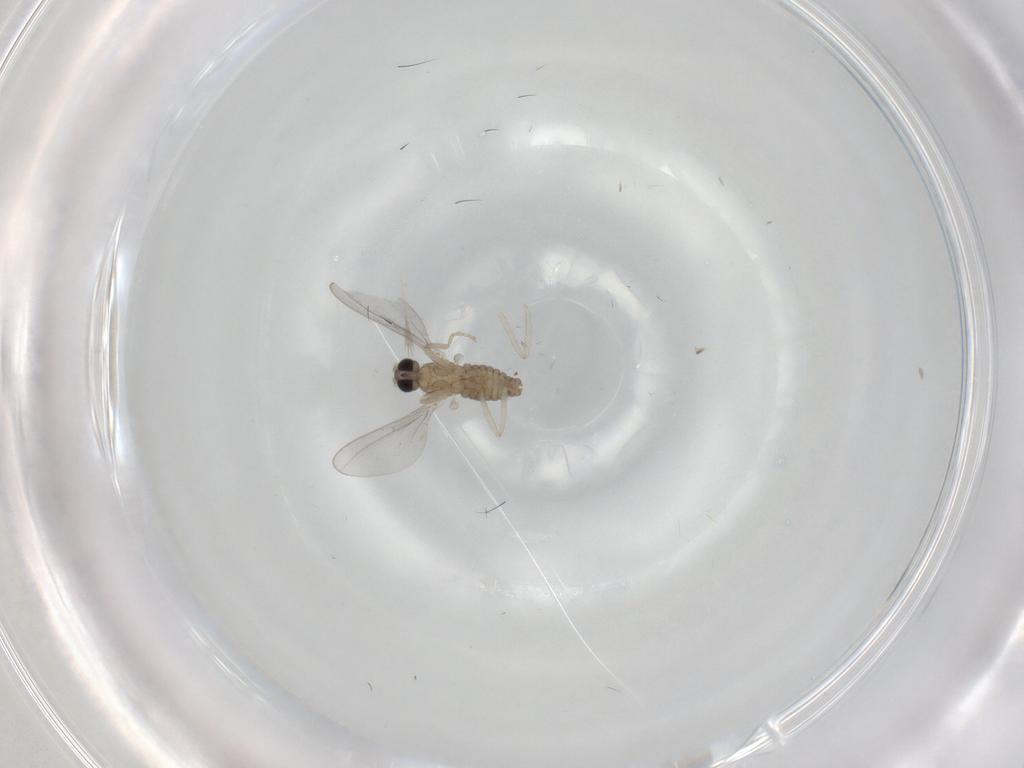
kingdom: Animalia
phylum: Arthropoda
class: Insecta
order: Diptera
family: Cecidomyiidae
